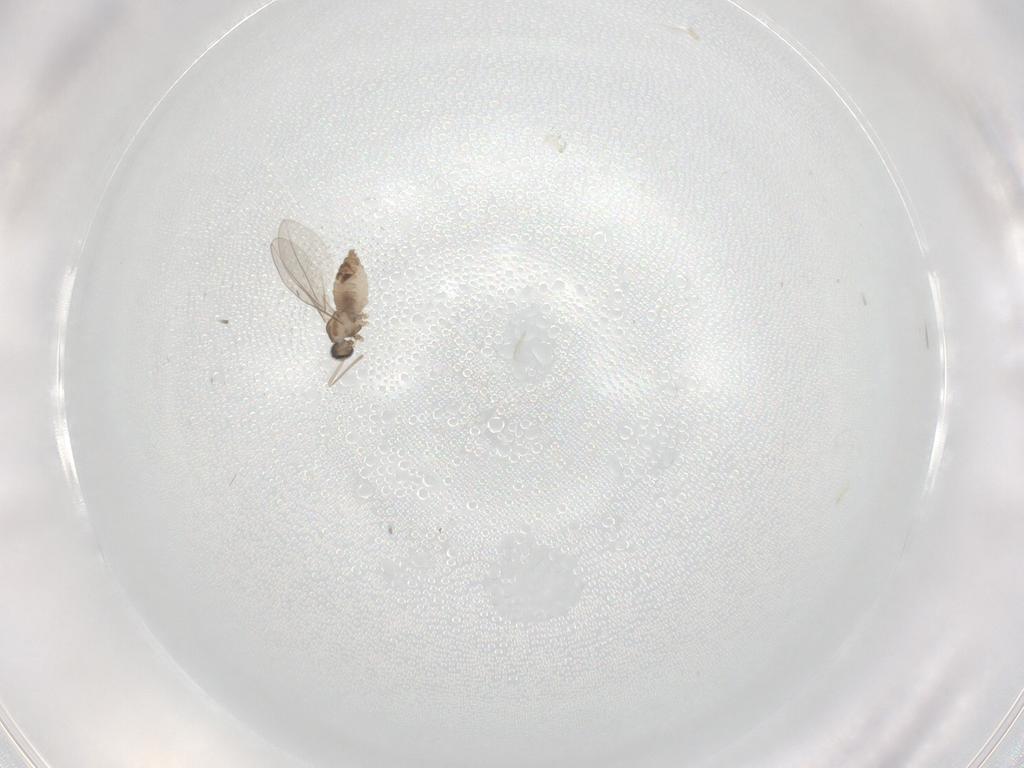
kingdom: Animalia
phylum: Arthropoda
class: Insecta
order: Diptera
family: Cecidomyiidae
